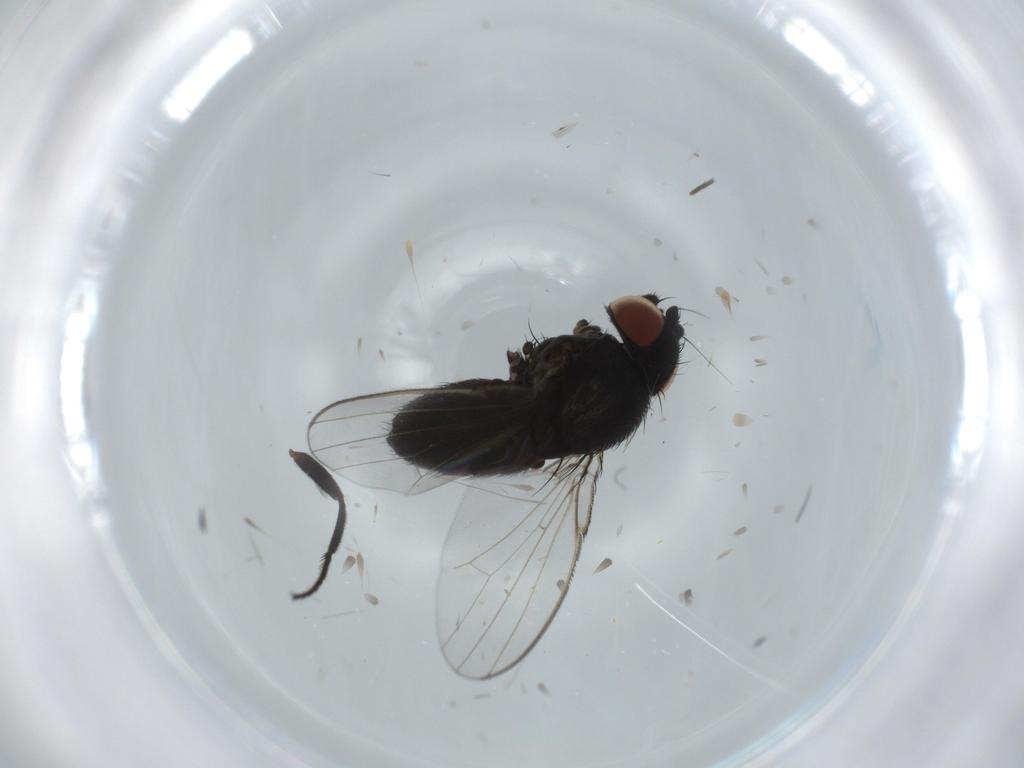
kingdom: Animalia
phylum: Arthropoda
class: Insecta
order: Diptera
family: Milichiidae
